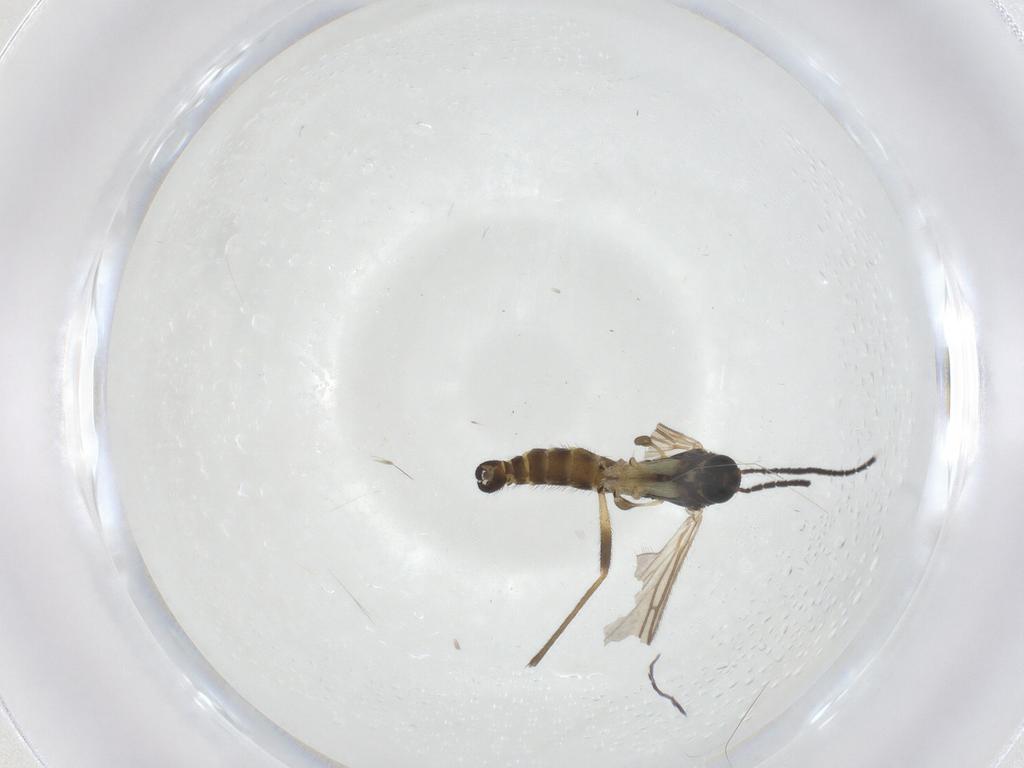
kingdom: Animalia
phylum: Arthropoda
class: Insecta
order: Diptera
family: Sciaridae
